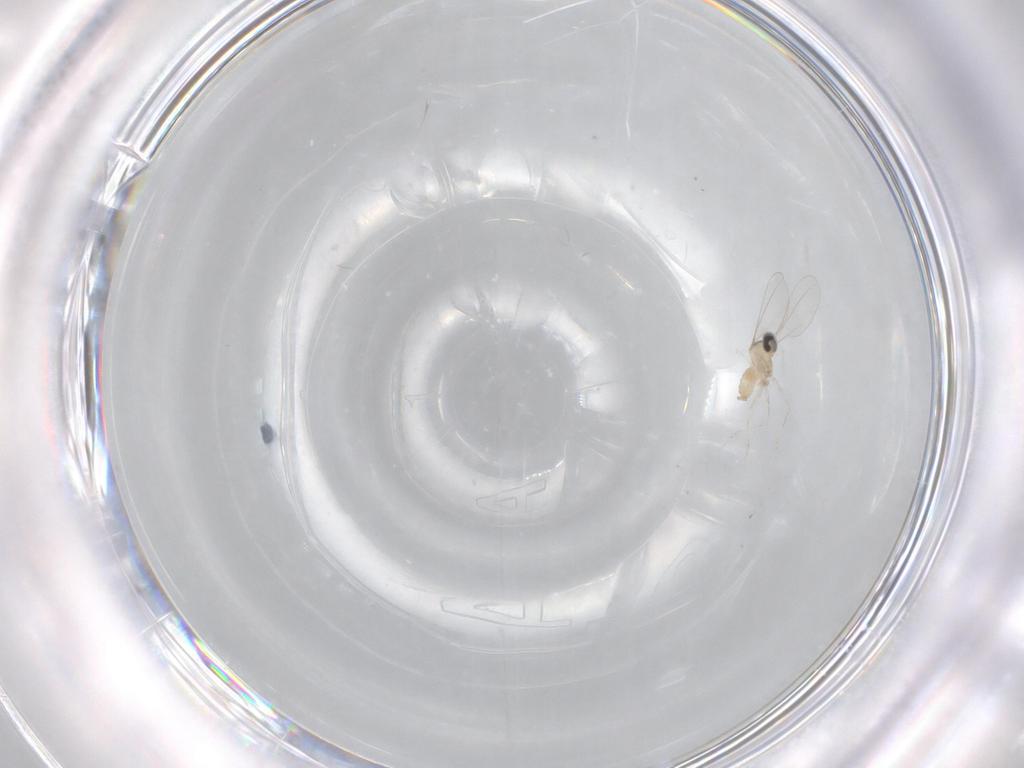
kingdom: Animalia
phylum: Arthropoda
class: Insecta
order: Diptera
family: Cecidomyiidae
